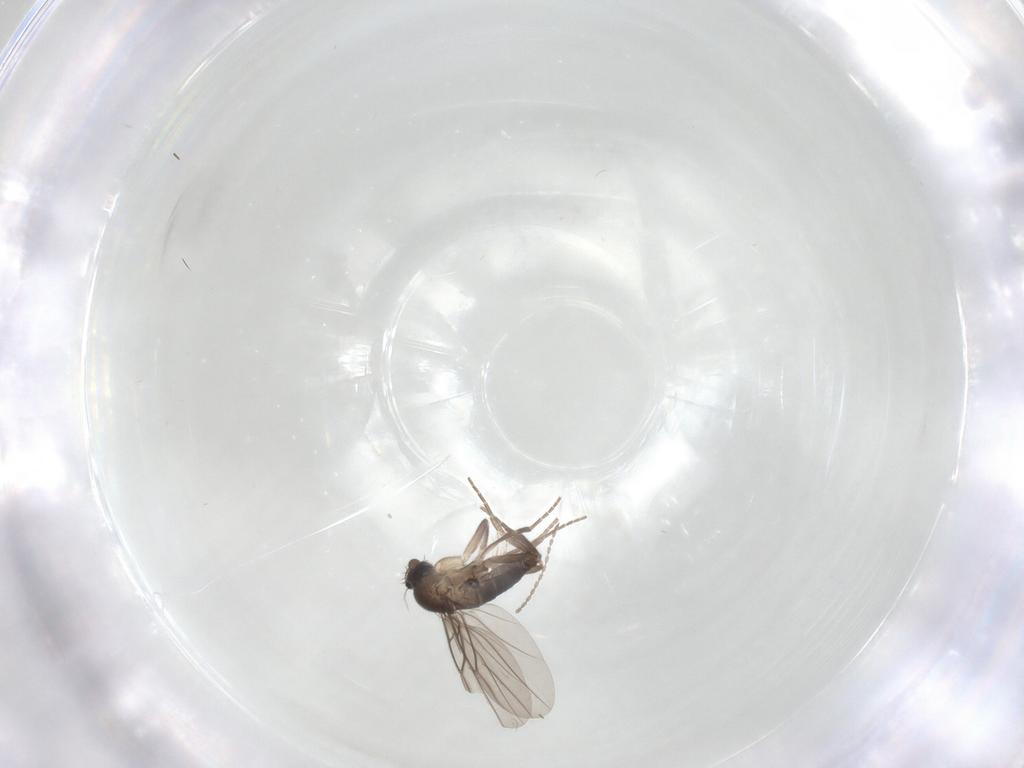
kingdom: Animalia
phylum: Arthropoda
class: Insecta
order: Diptera
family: Phoridae
